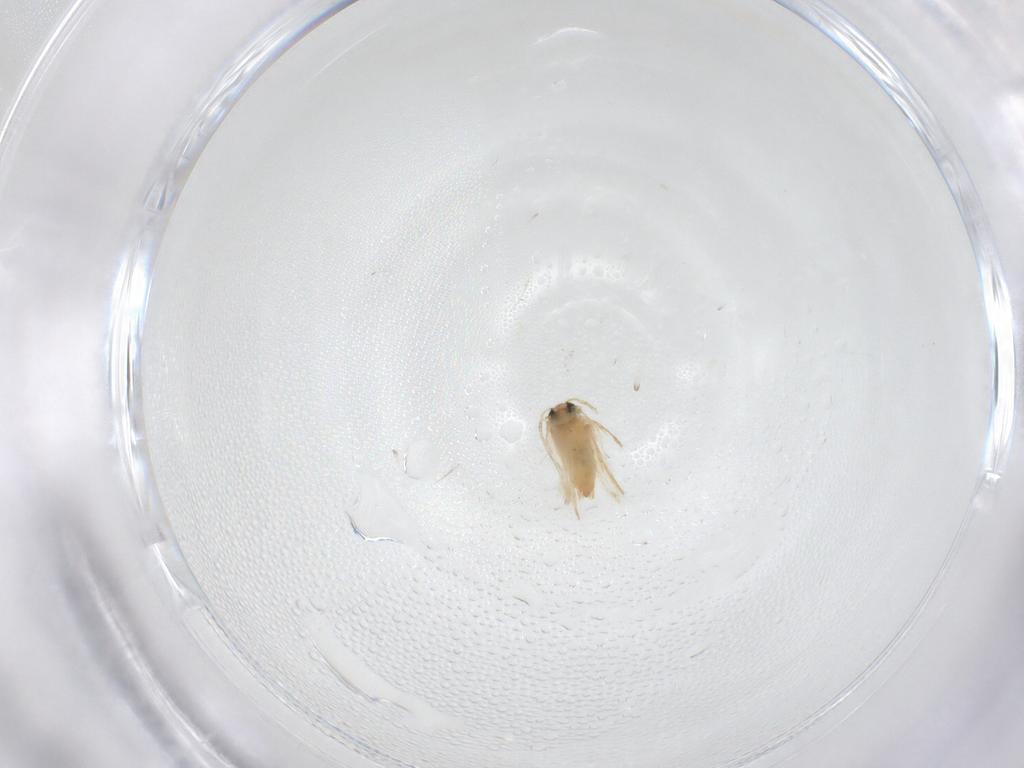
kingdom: Animalia
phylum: Arthropoda
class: Insecta
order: Lepidoptera
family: Crambidae
